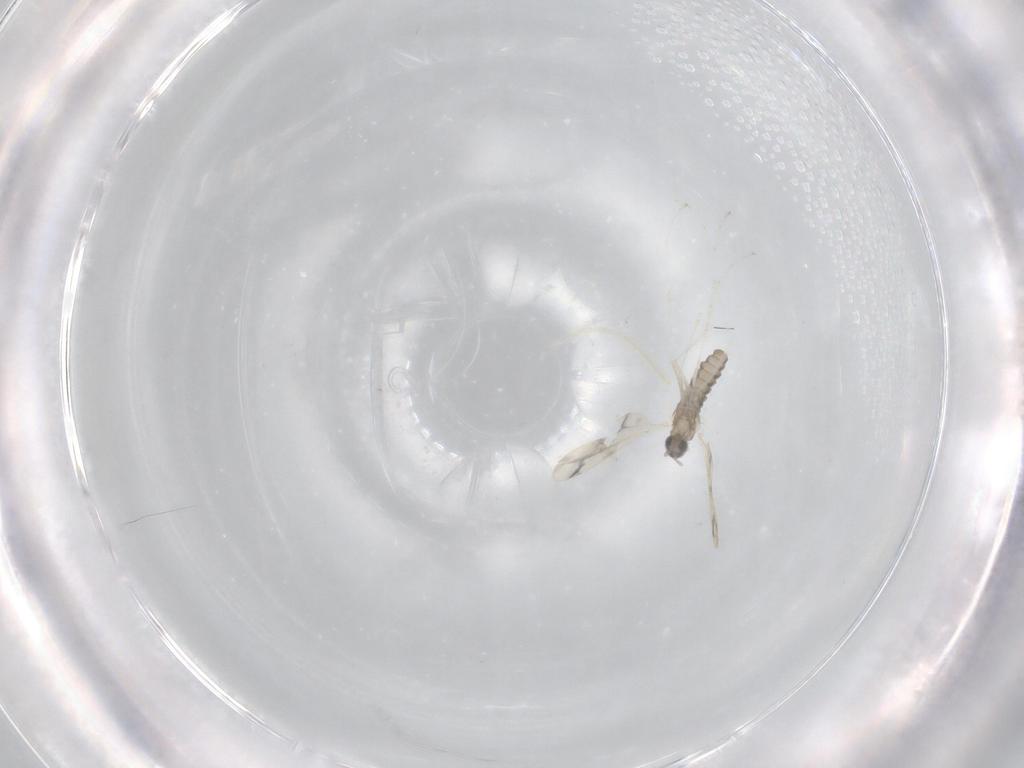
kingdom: Animalia
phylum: Arthropoda
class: Insecta
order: Diptera
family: Cecidomyiidae
